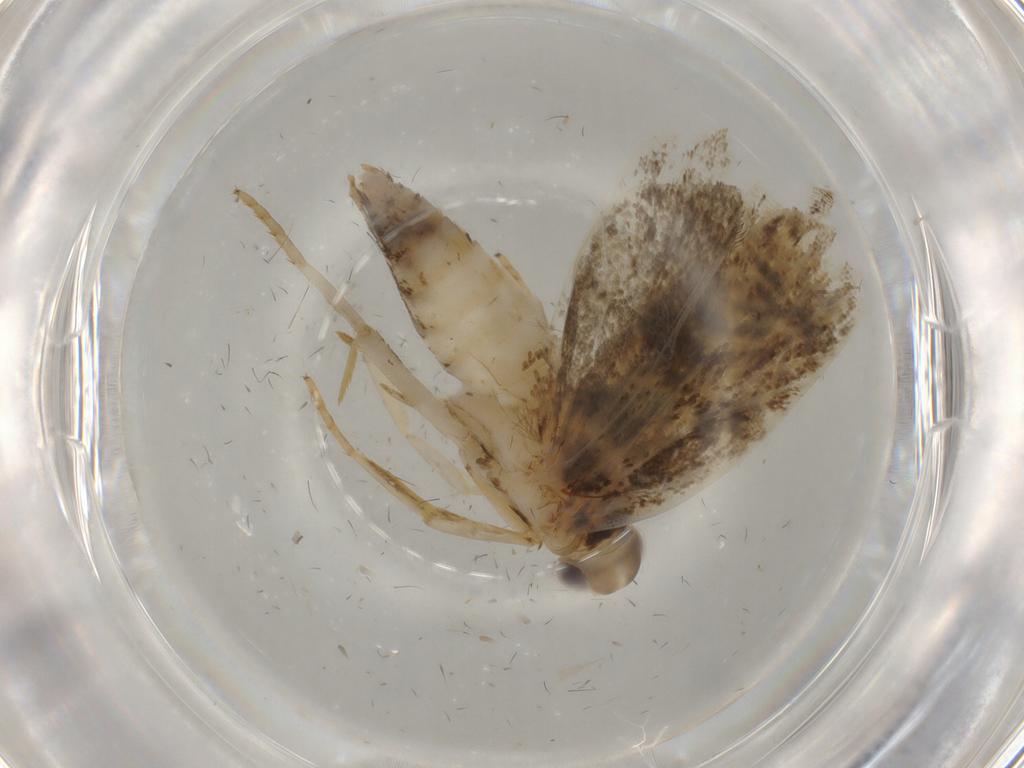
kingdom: Animalia
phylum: Arthropoda
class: Insecta
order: Lepidoptera
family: Gelechiidae
